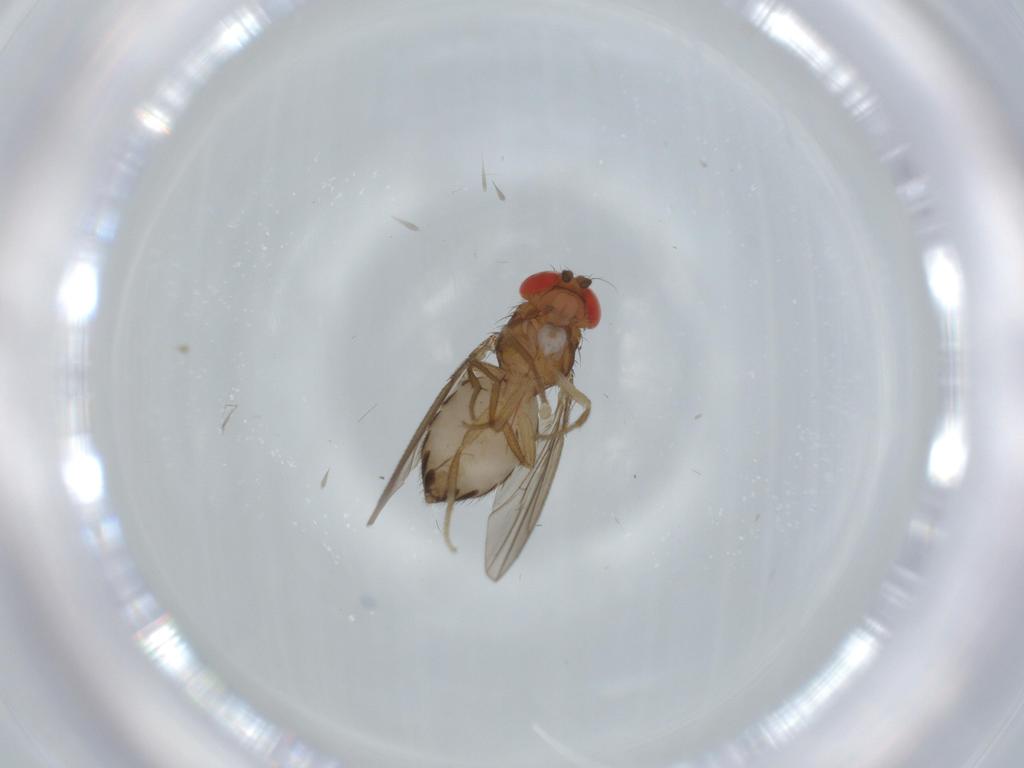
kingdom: Animalia
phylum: Arthropoda
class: Insecta
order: Diptera
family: Drosophilidae
